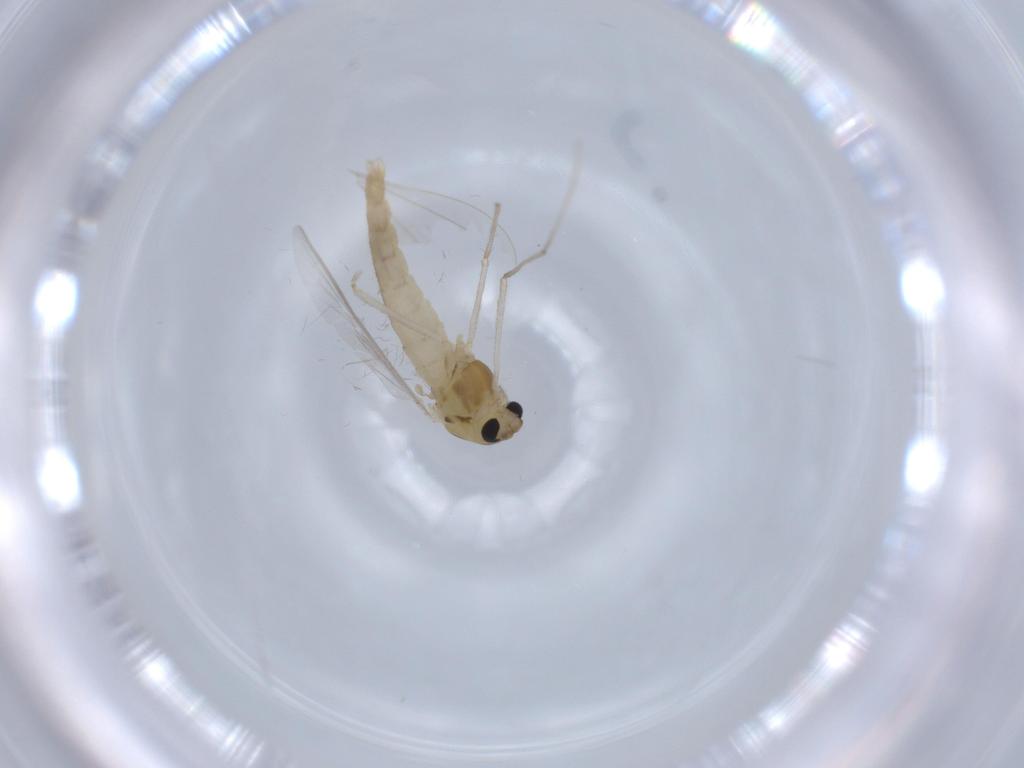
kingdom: Animalia
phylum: Arthropoda
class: Insecta
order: Diptera
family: Chironomidae
